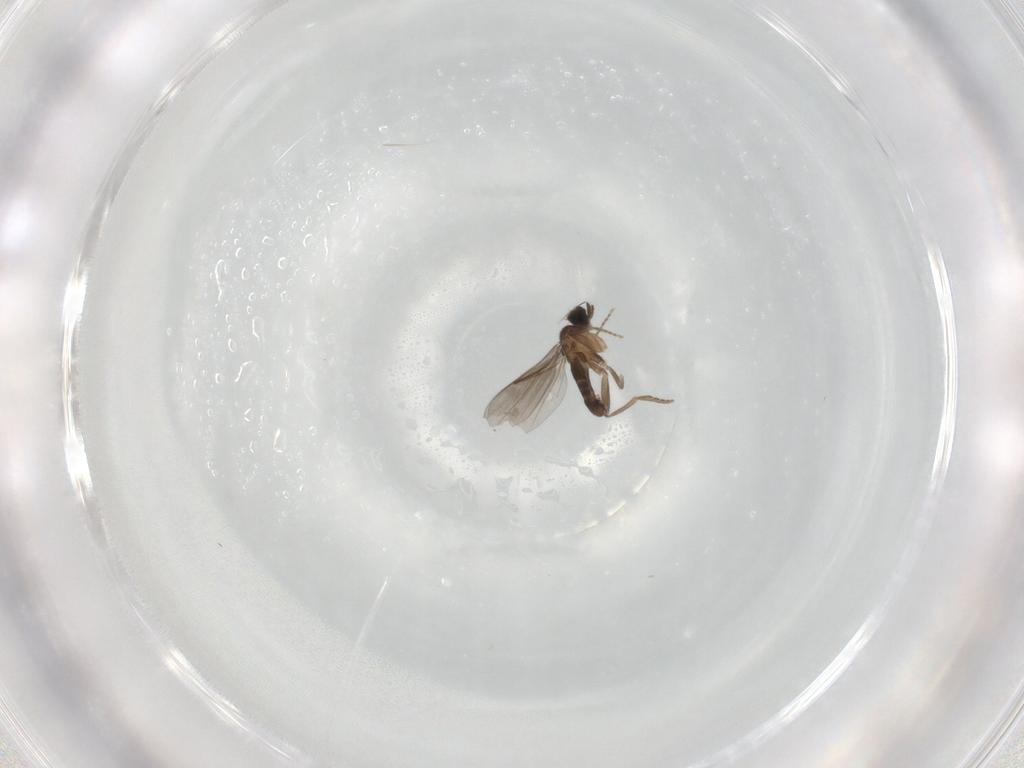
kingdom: Animalia
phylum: Arthropoda
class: Insecta
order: Diptera
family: Chironomidae
